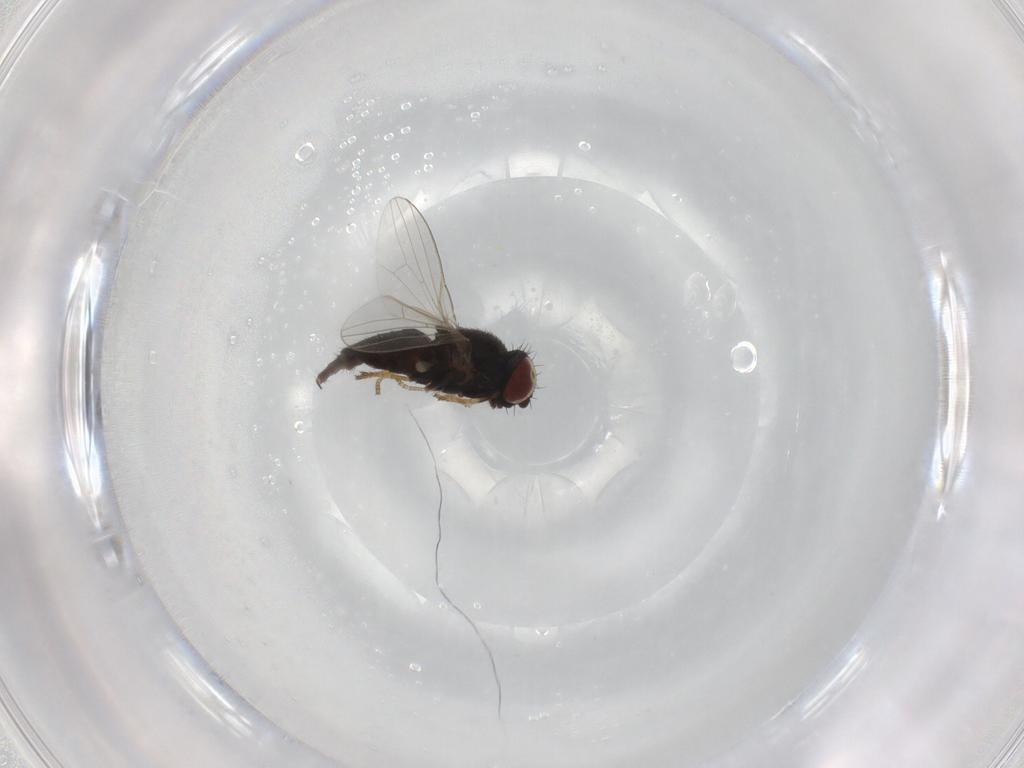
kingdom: Animalia
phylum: Arthropoda
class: Insecta
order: Diptera
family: Milichiidae
